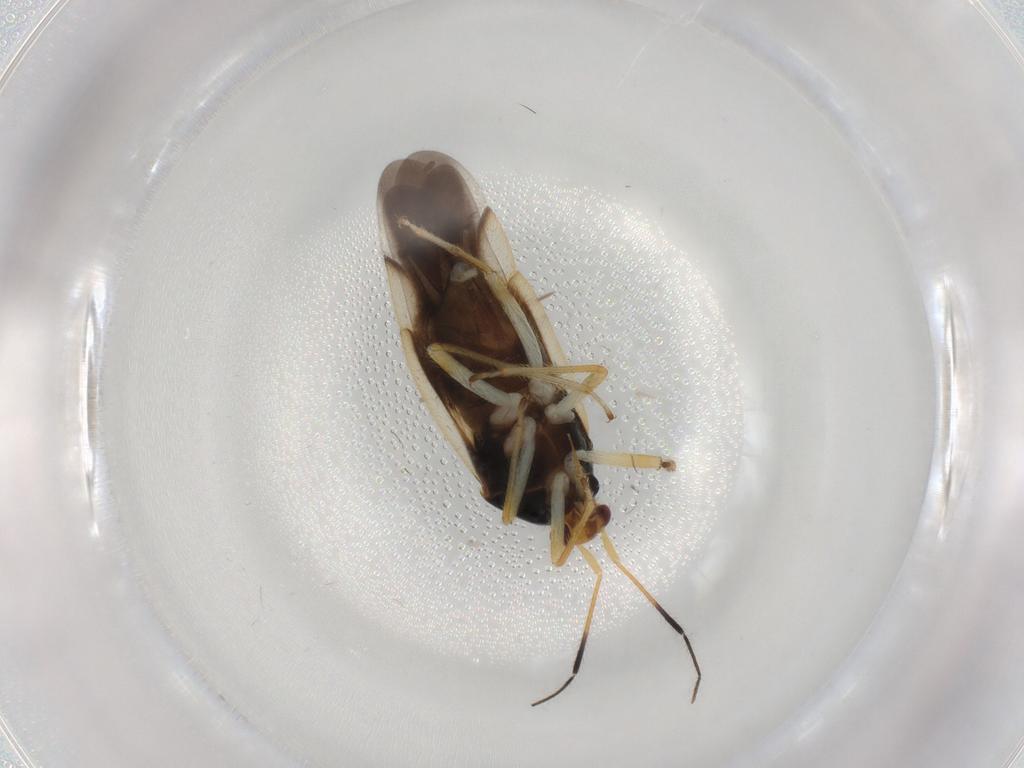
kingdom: Animalia
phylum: Arthropoda
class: Insecta
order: Hemiptera
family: Miridae
